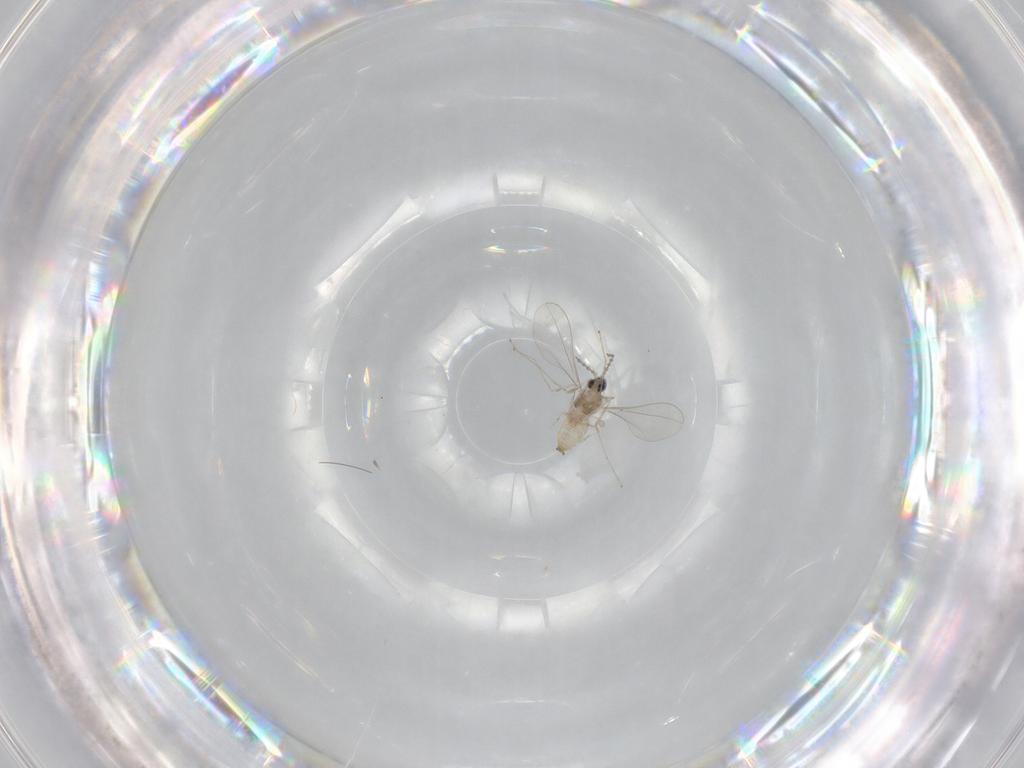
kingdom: Animalia
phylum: Arthropoda
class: Insecta
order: Diptera
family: Cecidomyiidae
